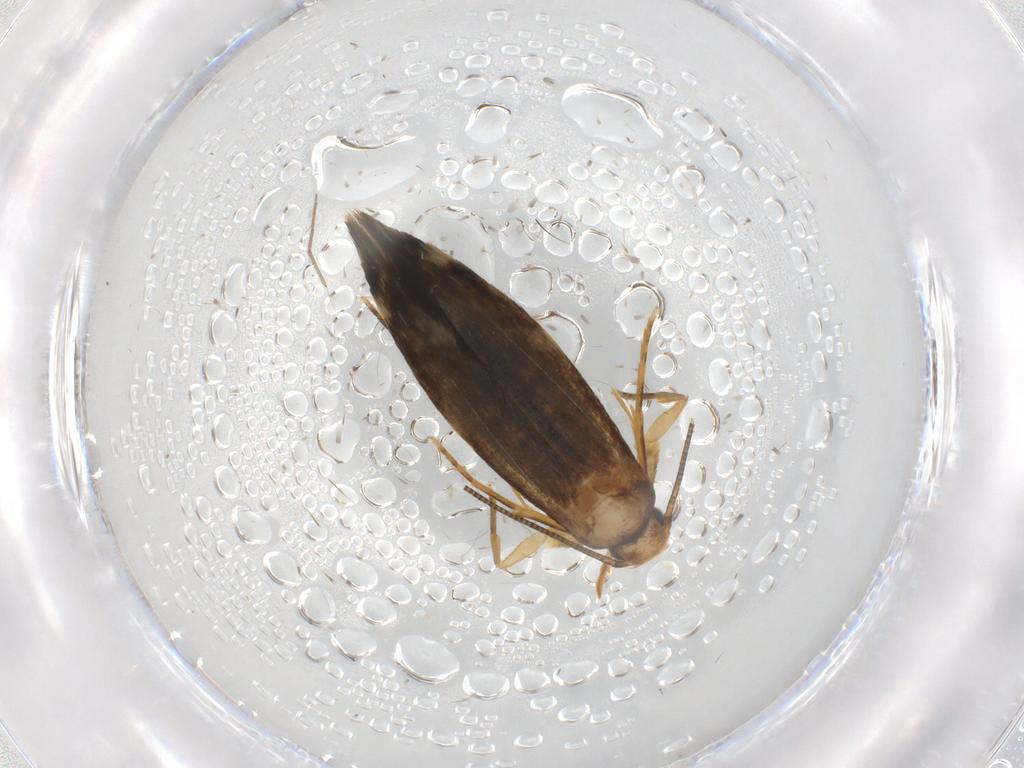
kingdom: Animalia
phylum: Arthropoda
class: Insecta
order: Lepidoptera
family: Tineidae
